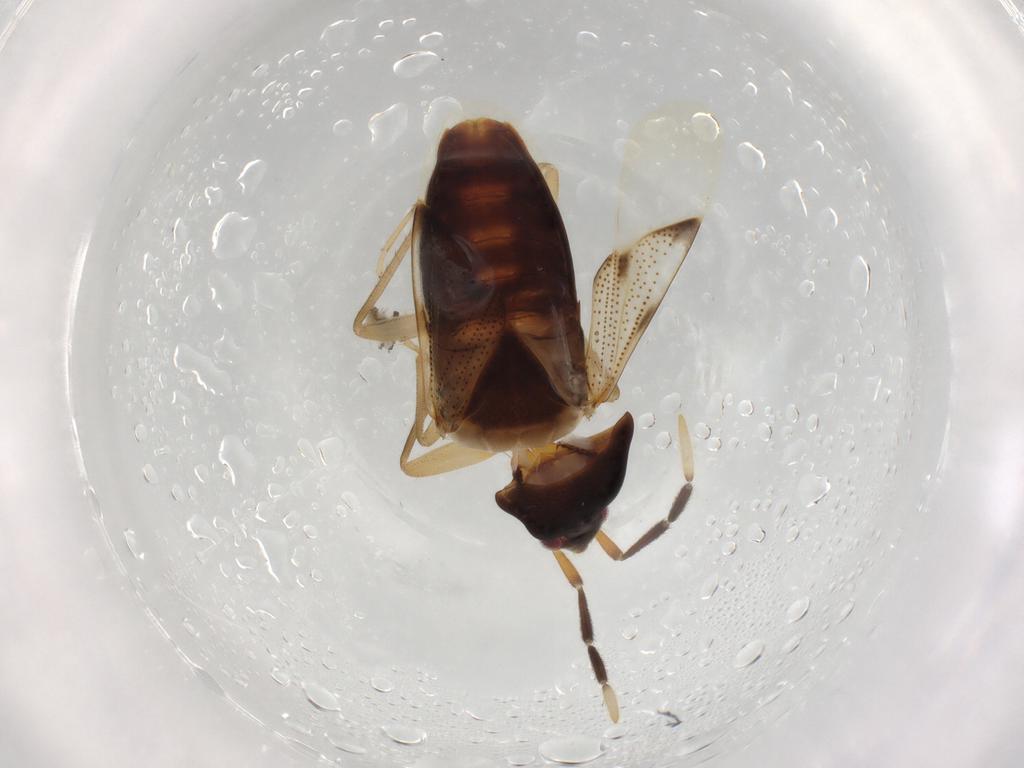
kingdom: Animalia
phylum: Arthropoda
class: Insecta
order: Hemiptera
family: Rhyparochromidae
